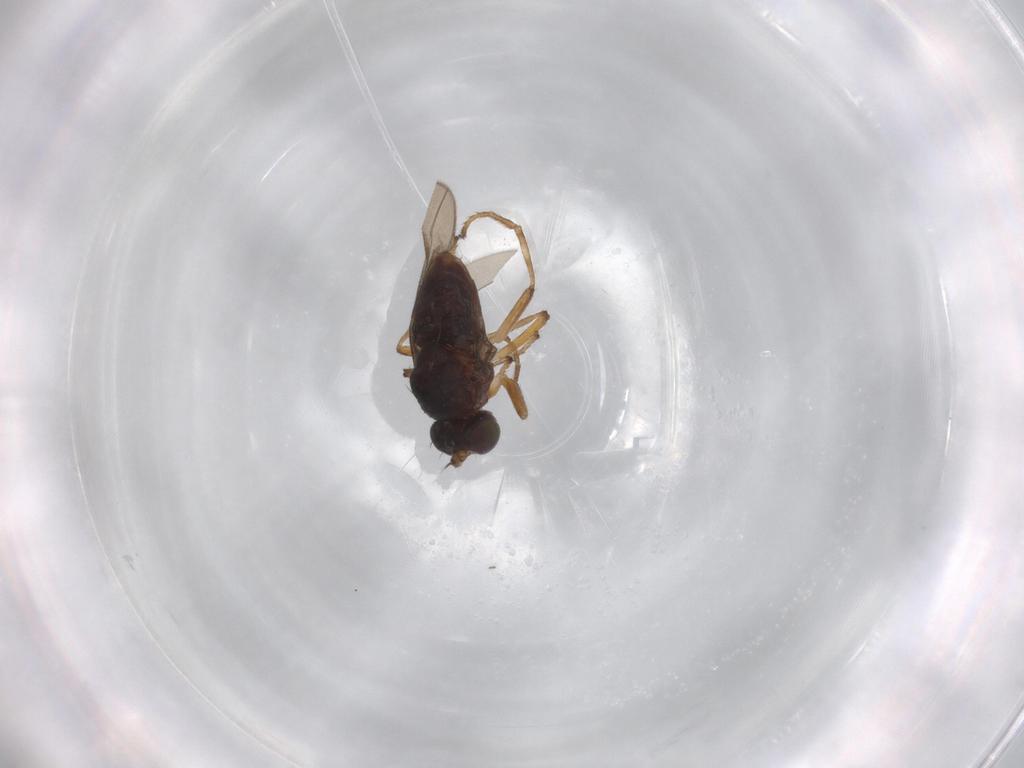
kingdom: Animalia
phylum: Arthropoda
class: Insecta
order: Diptera
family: Ephydridae
